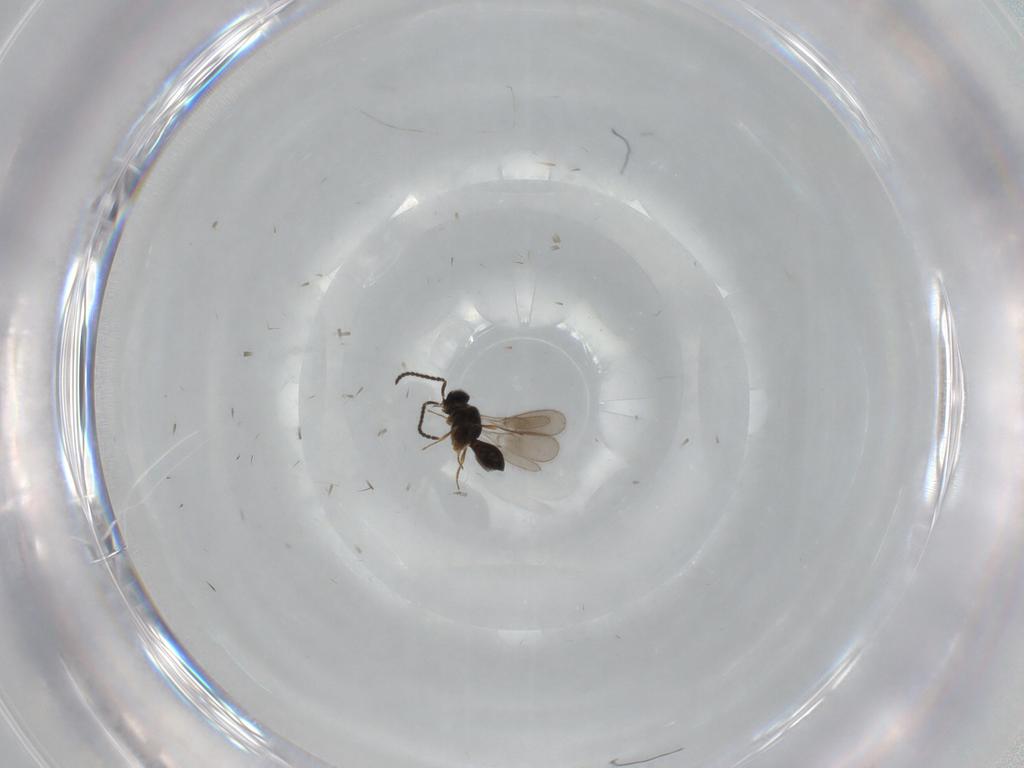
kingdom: Animalia
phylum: Arthropoda
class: Insecta
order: Hymenoptera
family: Scelionidae
